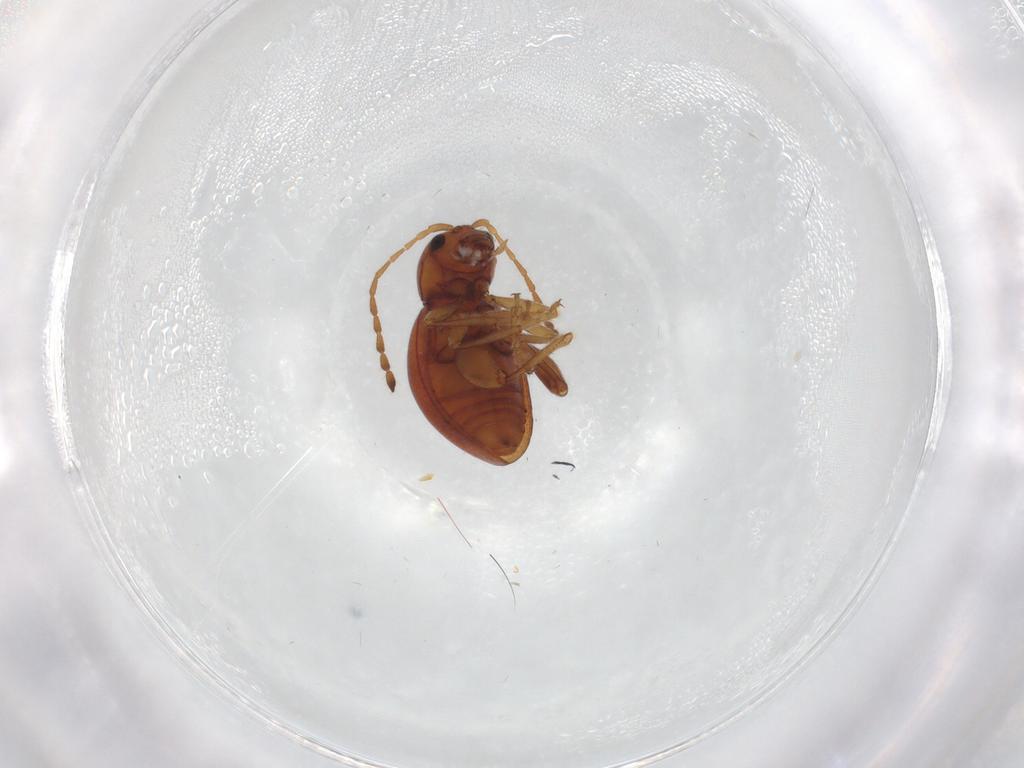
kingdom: Animalia
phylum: Arthropoda
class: Insecta
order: Coleoptera
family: Chrysomelidae
